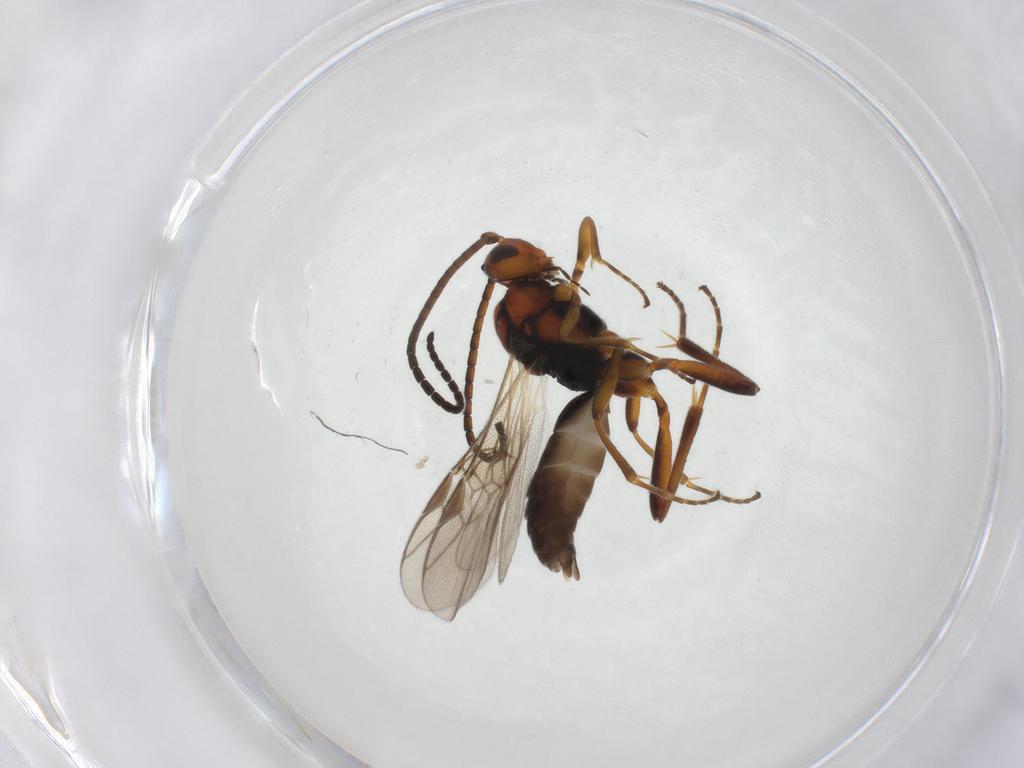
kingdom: Animalia
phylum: Arthropoda
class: Insecta
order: Hymenoptera
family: Braconidae
